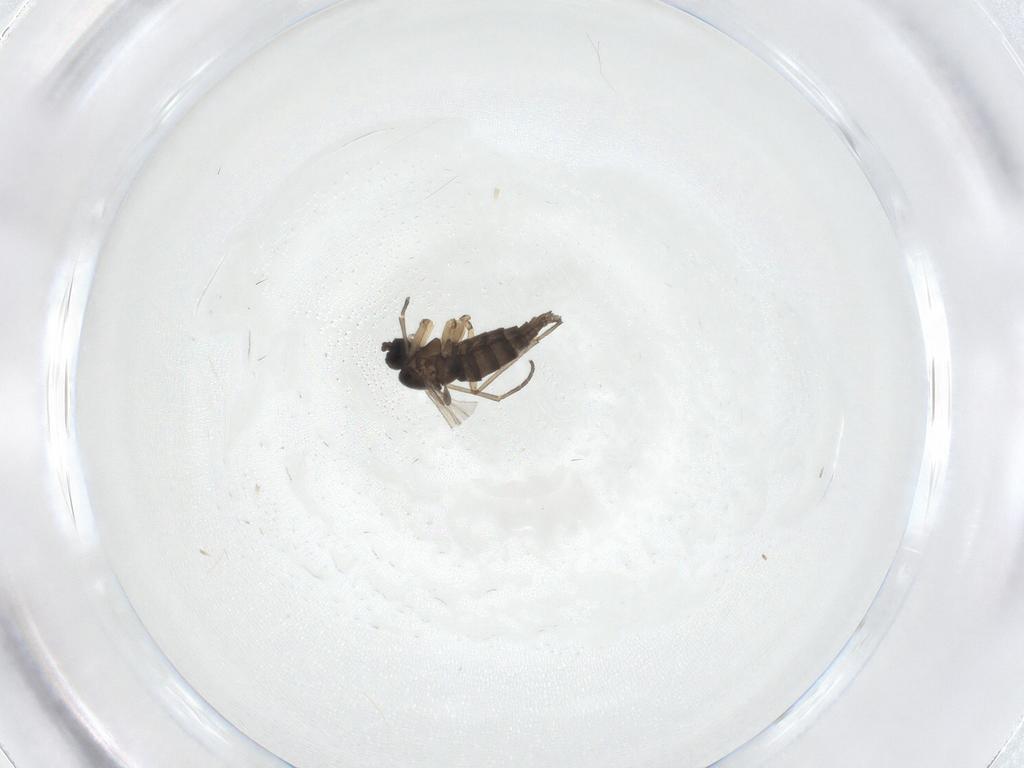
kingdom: Animalia
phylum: Arthropoda
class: Insecta
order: Diptera
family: Sciaridae
